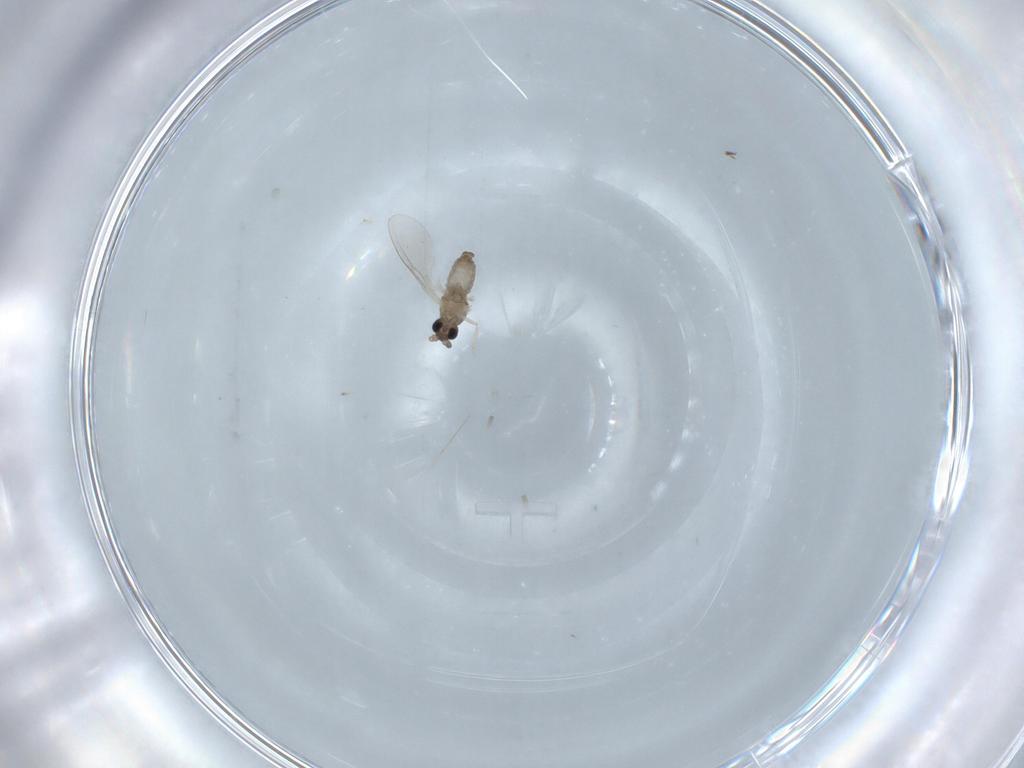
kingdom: Animalia
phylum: Arthropoda
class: Insecta
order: Diptera
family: Cecidomyiidae
